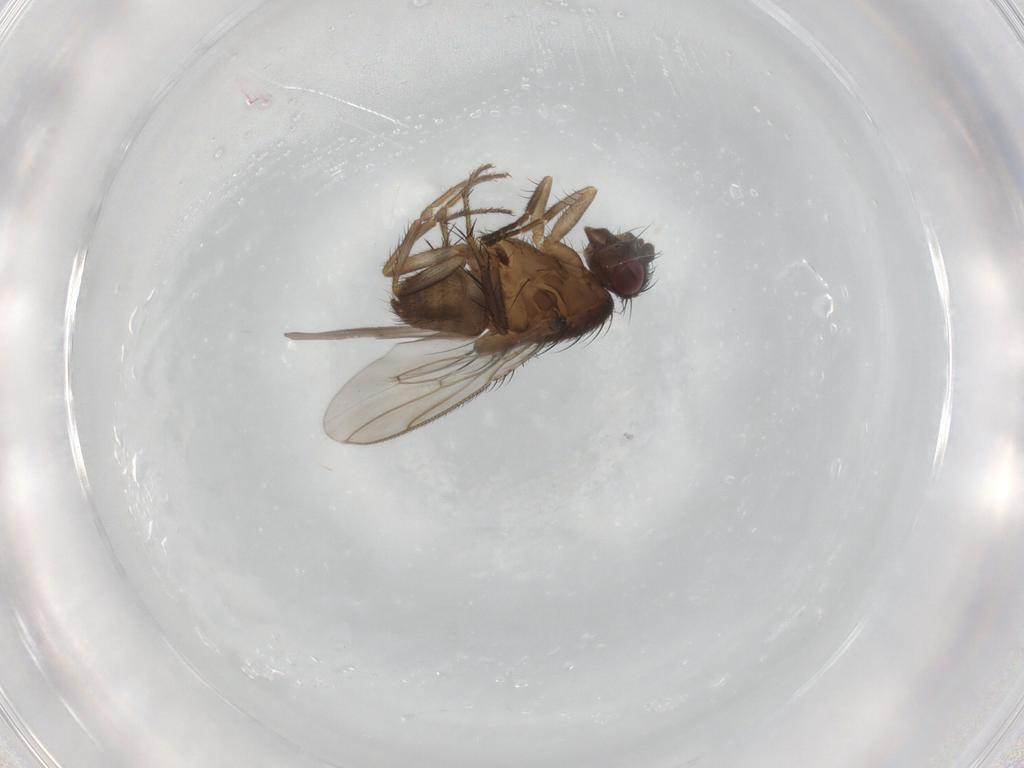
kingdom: Animalia
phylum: Arthropoda
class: Insecta
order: Diptera
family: Sphaeroceridae
